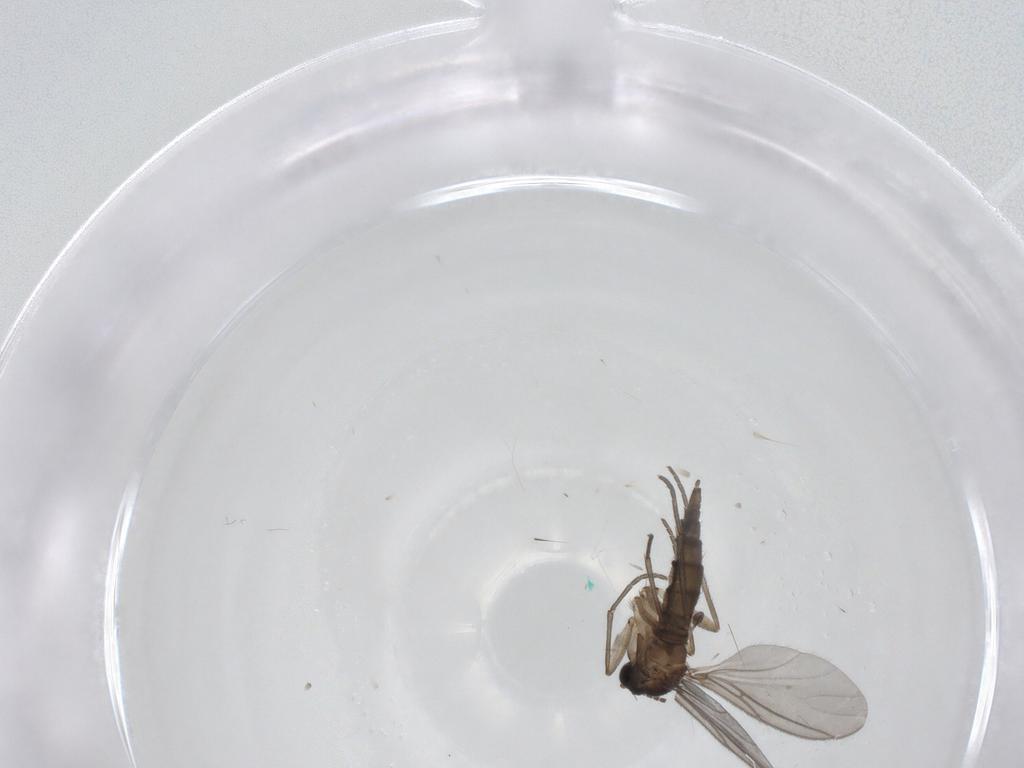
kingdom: Animalia
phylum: Arthropoda
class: Insecta
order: Diptera
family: Sciaridae
